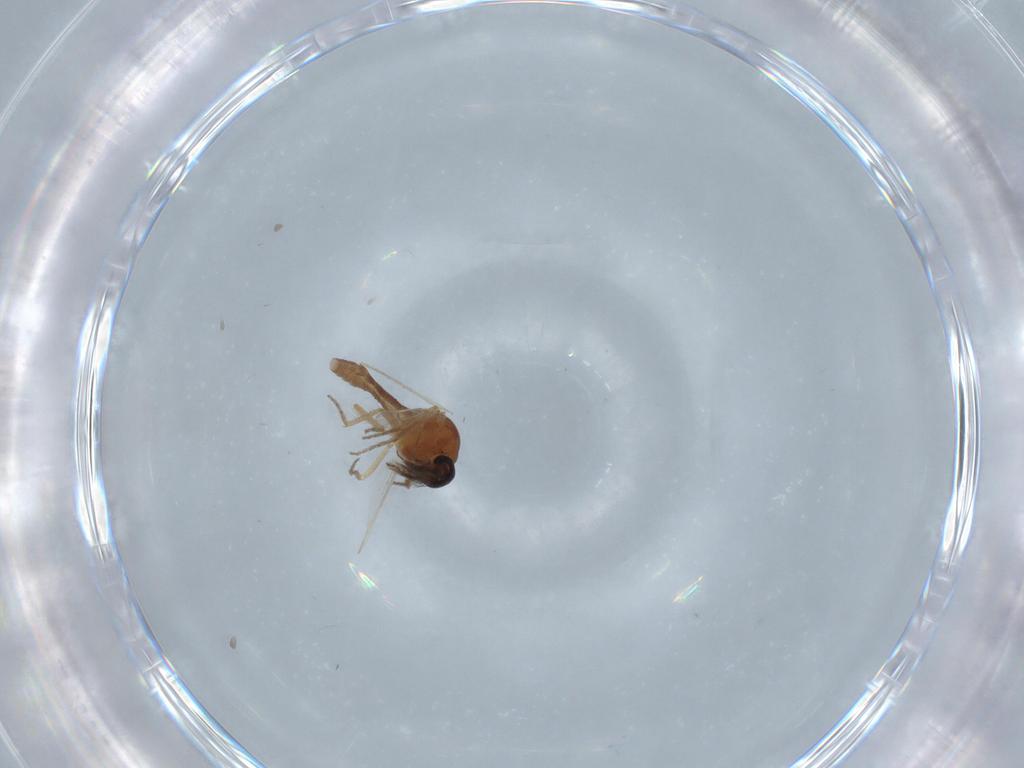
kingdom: Animalia
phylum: Arthropoda
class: Insecta
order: Diptera
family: Ceratopogonidae
